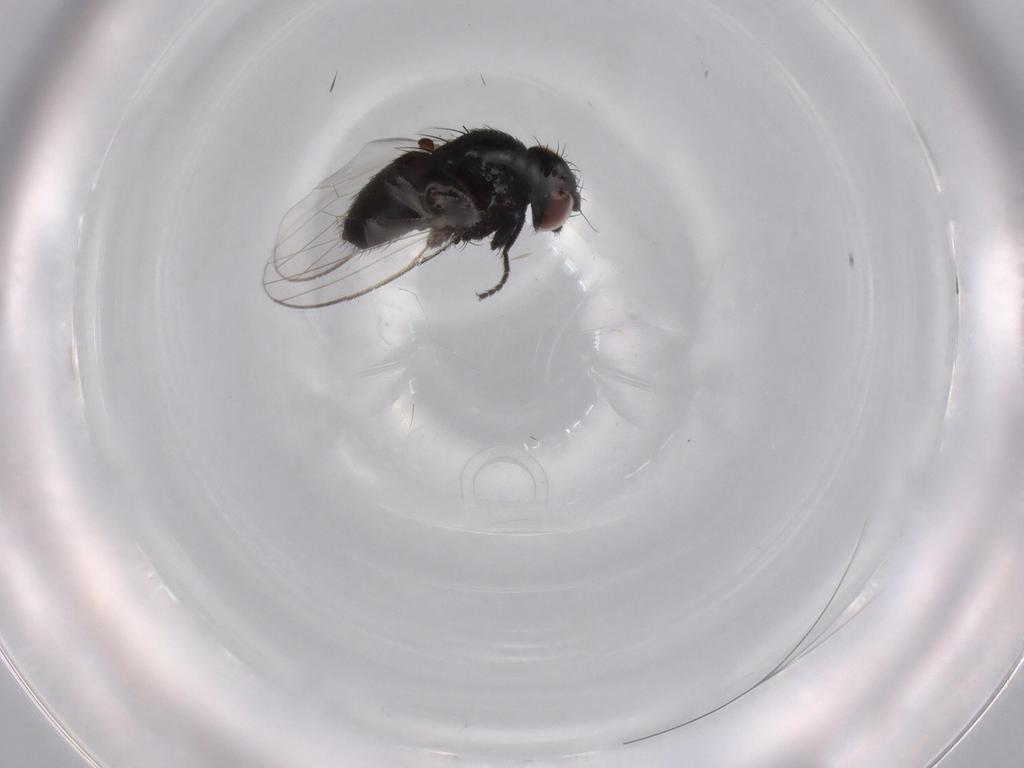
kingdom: Animalia
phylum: Arthropoda
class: Insecta
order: Diptera
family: Milichiidae
